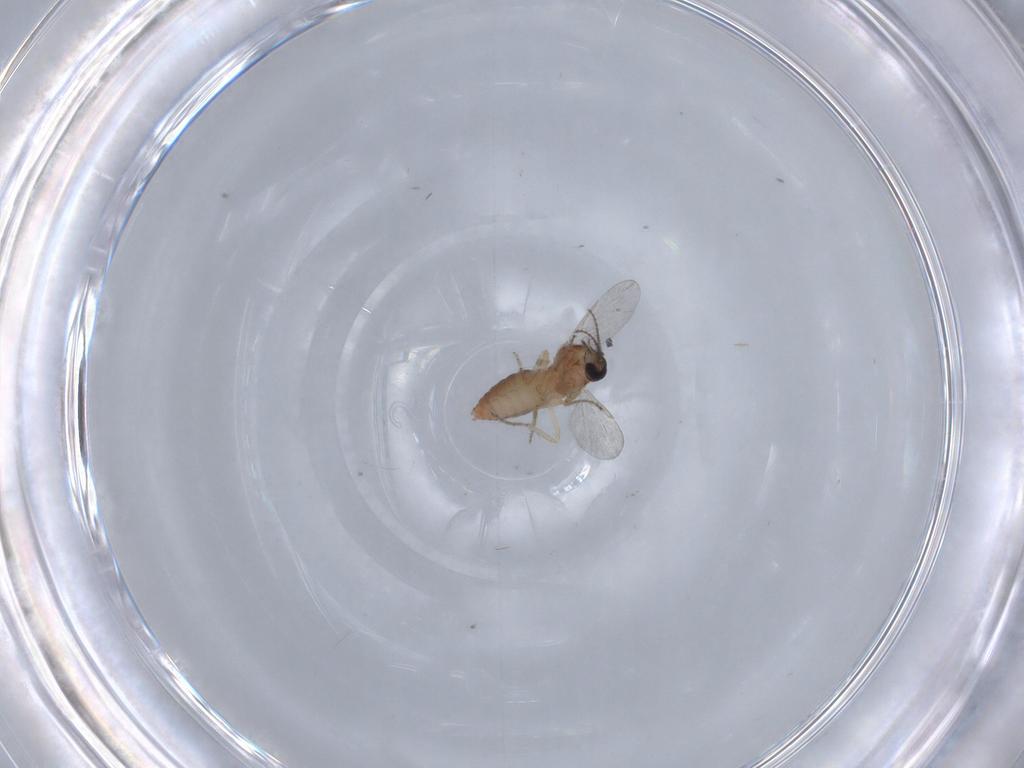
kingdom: Animalia
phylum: Arthropoda
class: Insecta
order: Diptera
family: Ceratopogonidae
